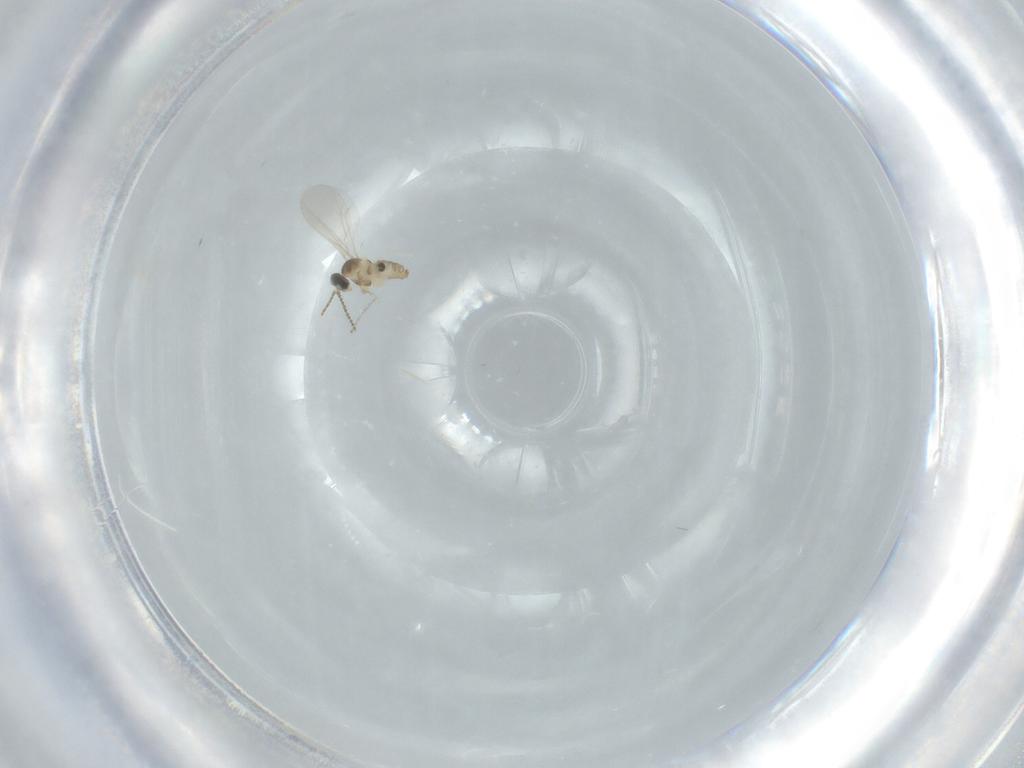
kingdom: Animalia
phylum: Arthropoda
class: Insecta
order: Diptera
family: Cecidomyiidae
